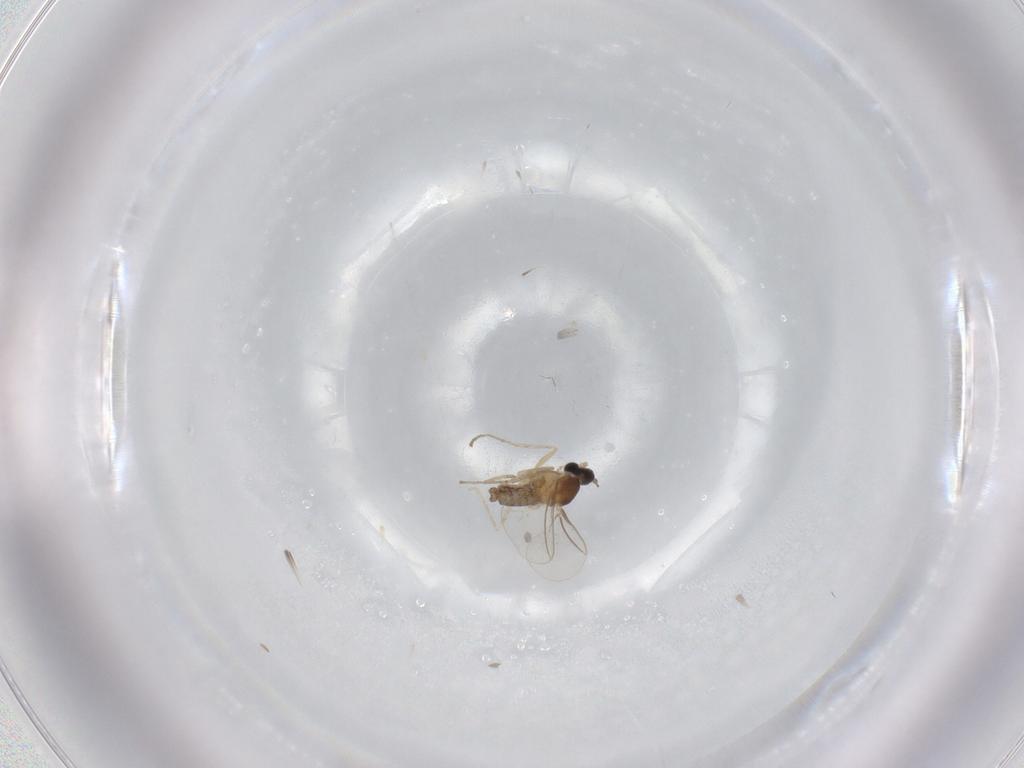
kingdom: Animalia
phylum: Arthropoda
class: Insecta
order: Diptera
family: Cecidomyiidae
